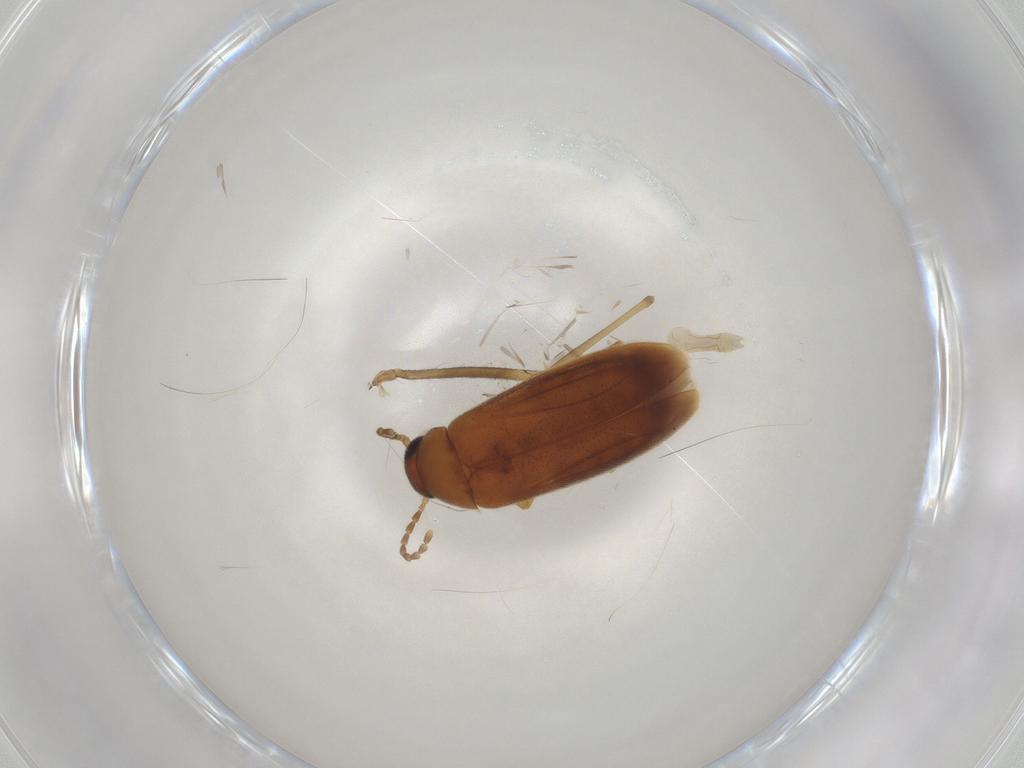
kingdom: Animalia
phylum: Arthropoda
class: Insecta
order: Coleoptera
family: Scraptiidae
